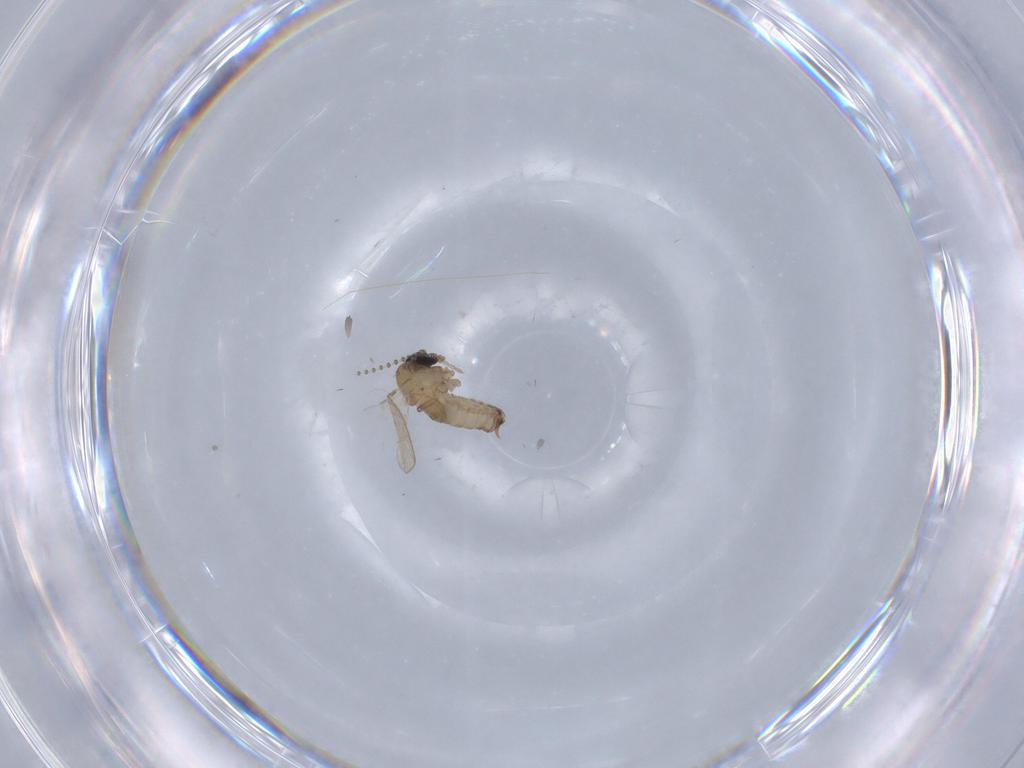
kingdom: Animalia
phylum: Arthropoda
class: Insecta
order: Diptera
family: Psychodidae
